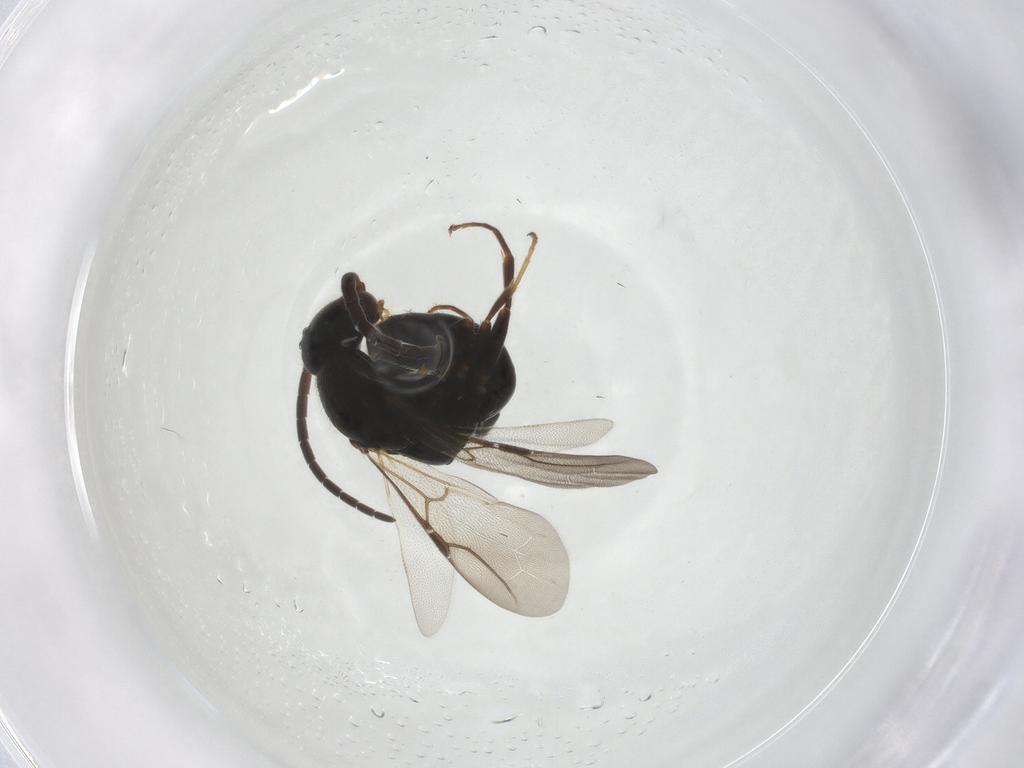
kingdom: Animalia
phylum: Arthropoda
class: Insecta
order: Hymenoptera
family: Bethylidae
